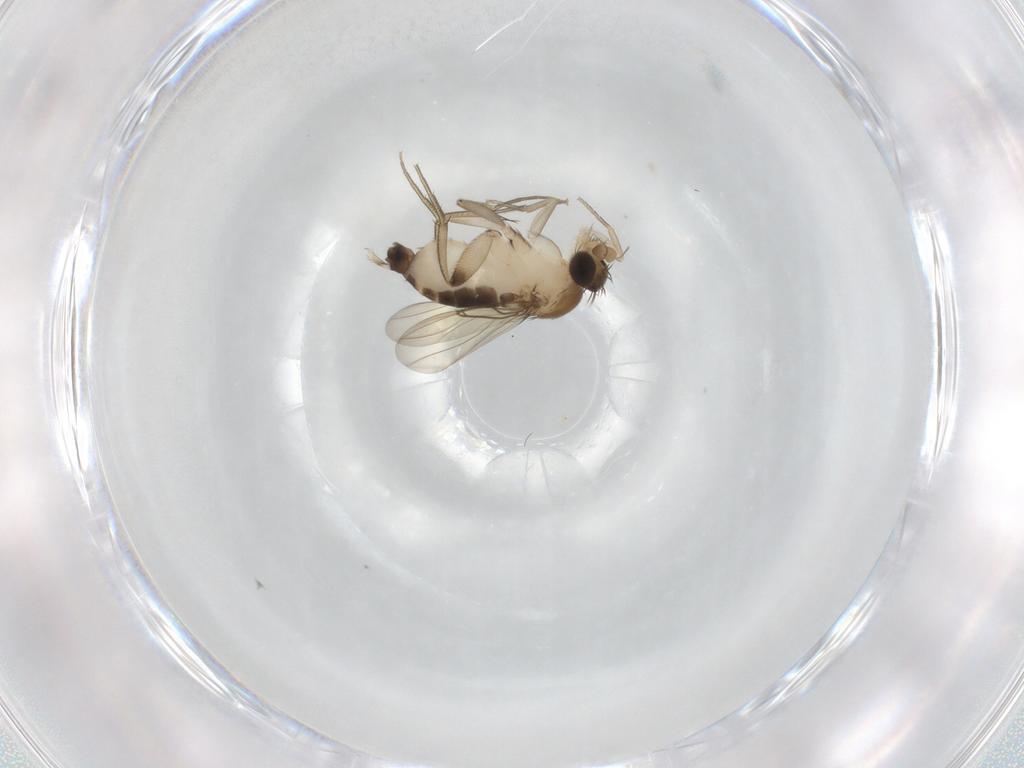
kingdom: Animalia
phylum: Arthropoda
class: Insecta
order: Diptera
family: Phoridae
